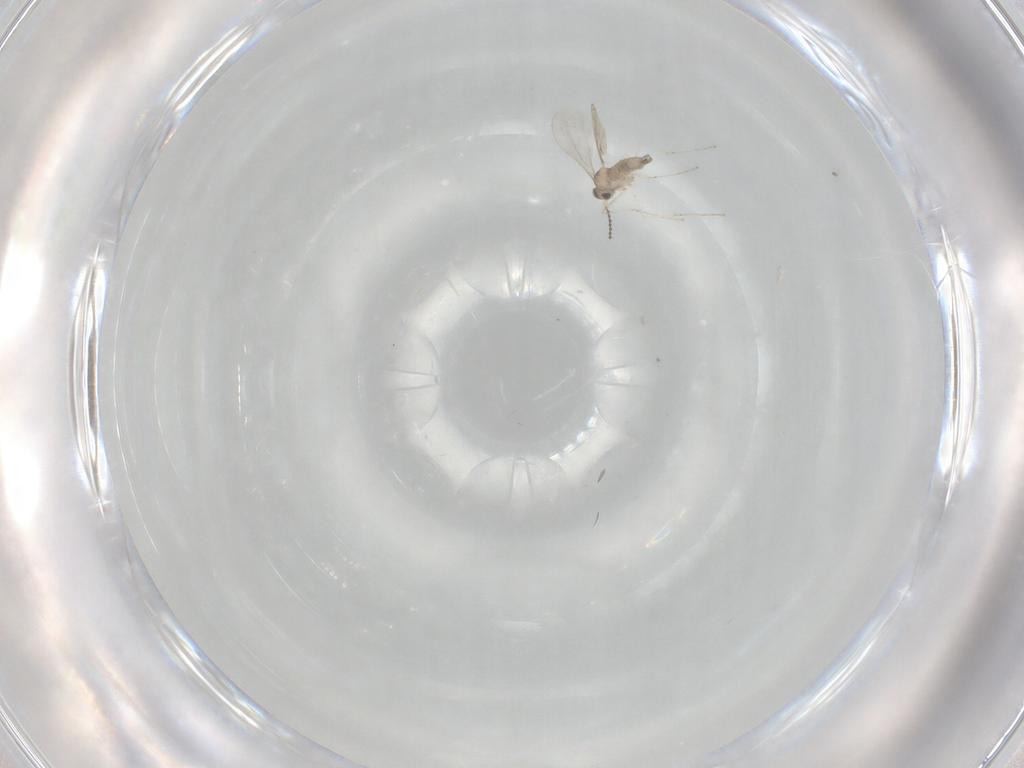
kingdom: Animalia
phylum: Arthropoda
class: Insecta
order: Diptera
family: Cecidomyiidae
